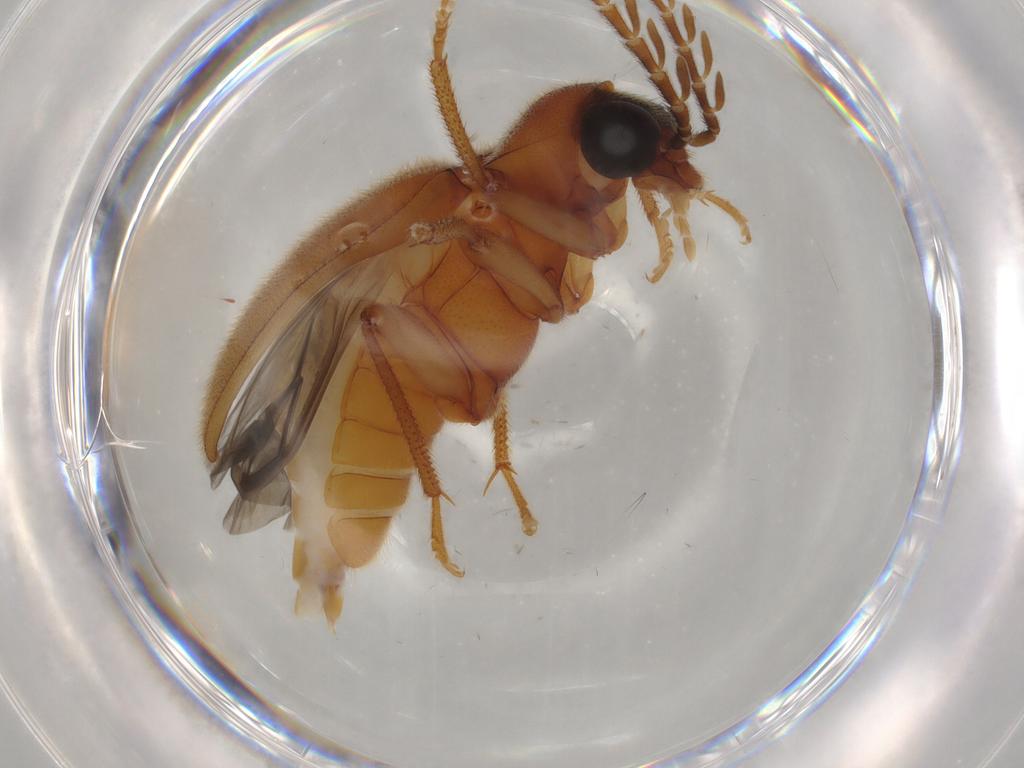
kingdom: Animalia
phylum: Arthropoda
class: Insecta
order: Coleoptera
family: Ptilodactylidae
